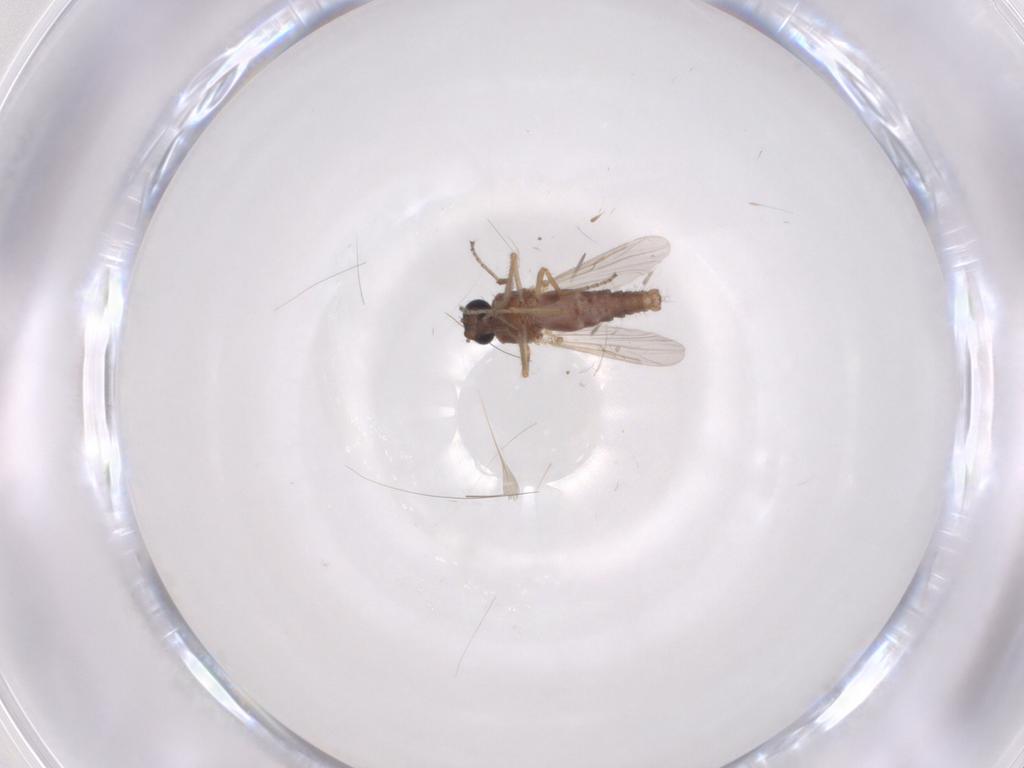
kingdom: Animalia
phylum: Arthropoda
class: Insecta
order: Diptera
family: Ceratopogonidae
